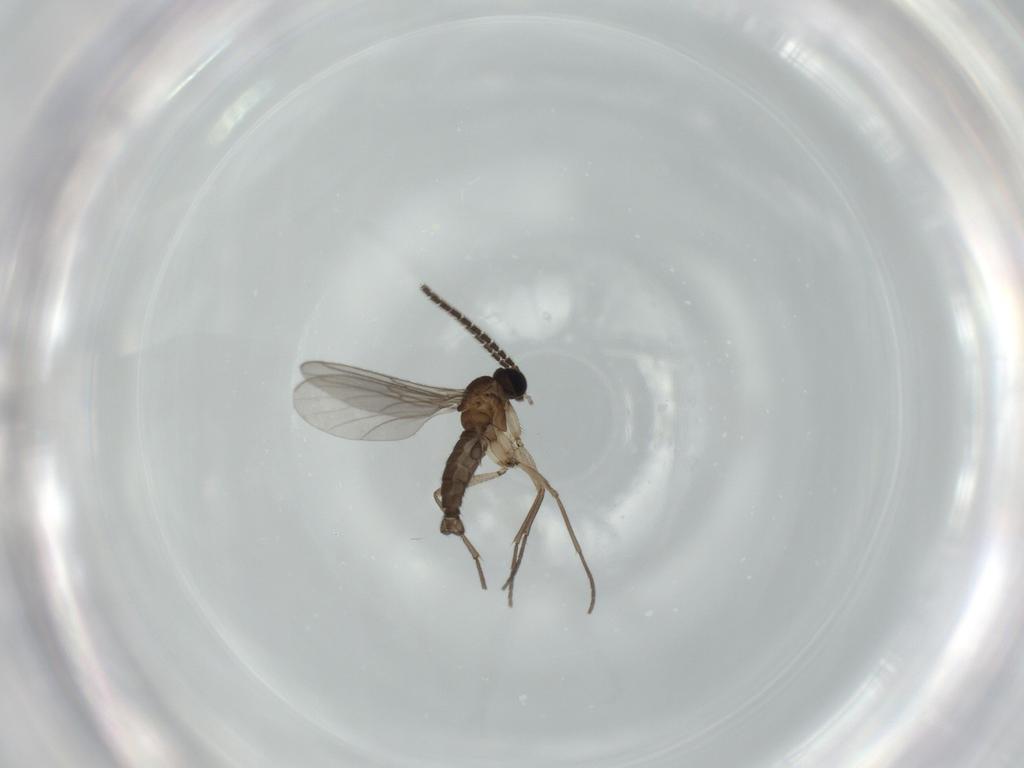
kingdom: Animalia
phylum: Arthropoda
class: Insecta
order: Diptera
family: Sciaridae
